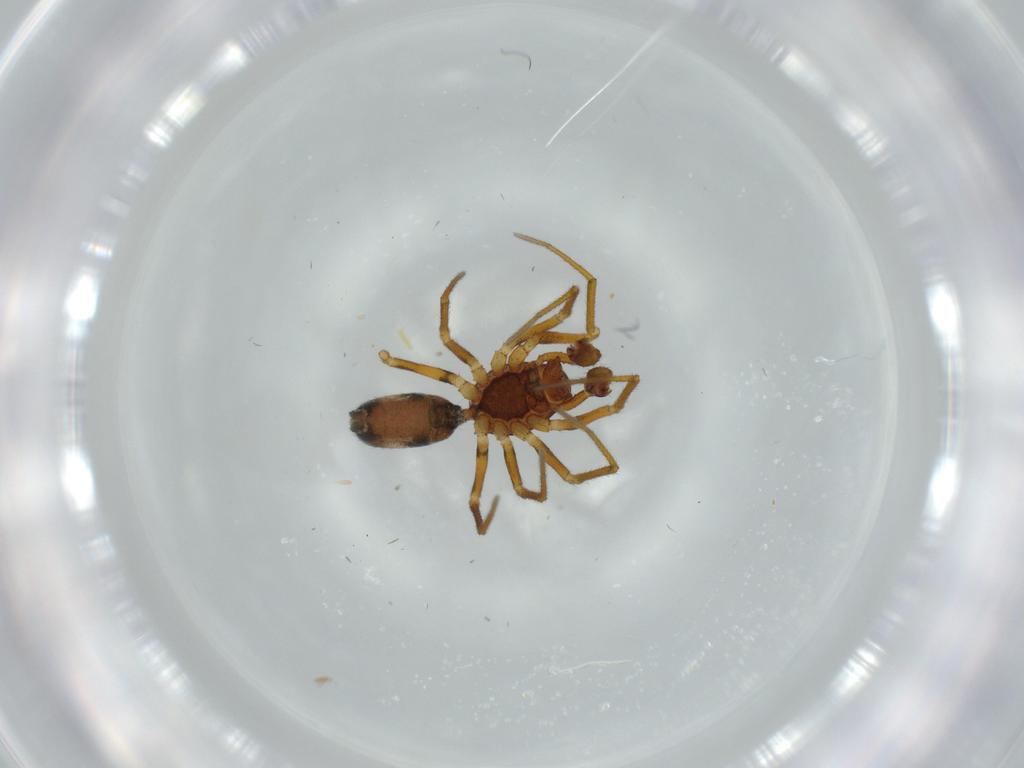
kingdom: Animalia
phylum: Arthropoda
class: Arachnida
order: Araneae
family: Linyphiidae
